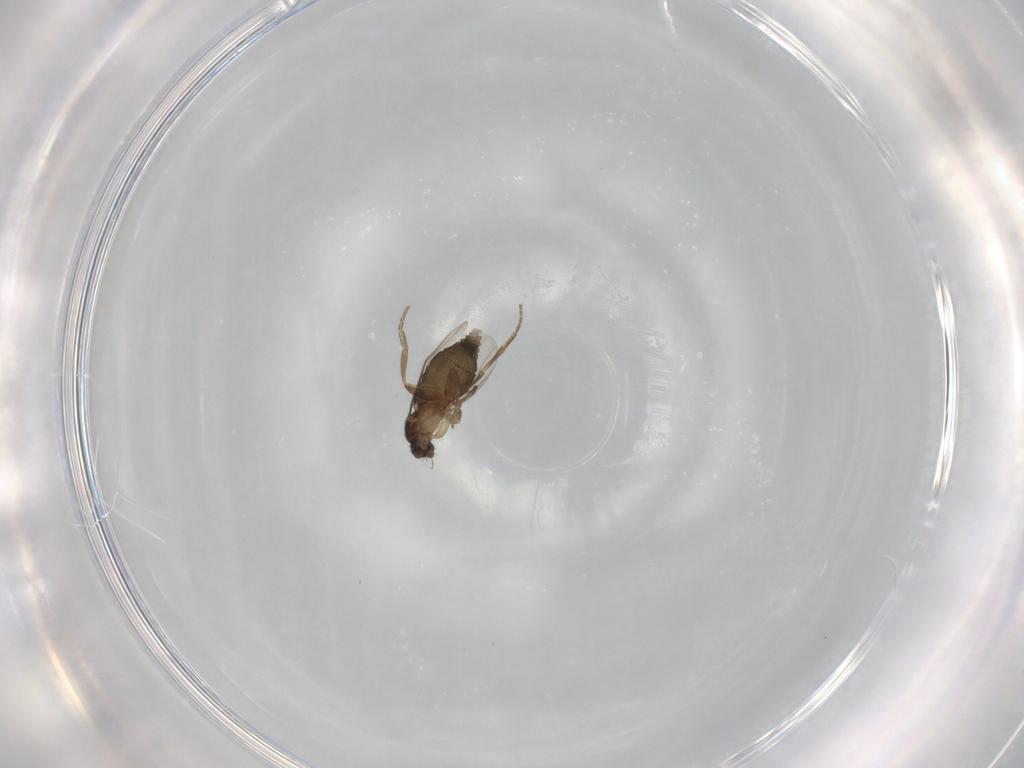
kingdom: Animalia
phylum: Arthropoda
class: Insecta
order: Diptera
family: Phoridae
